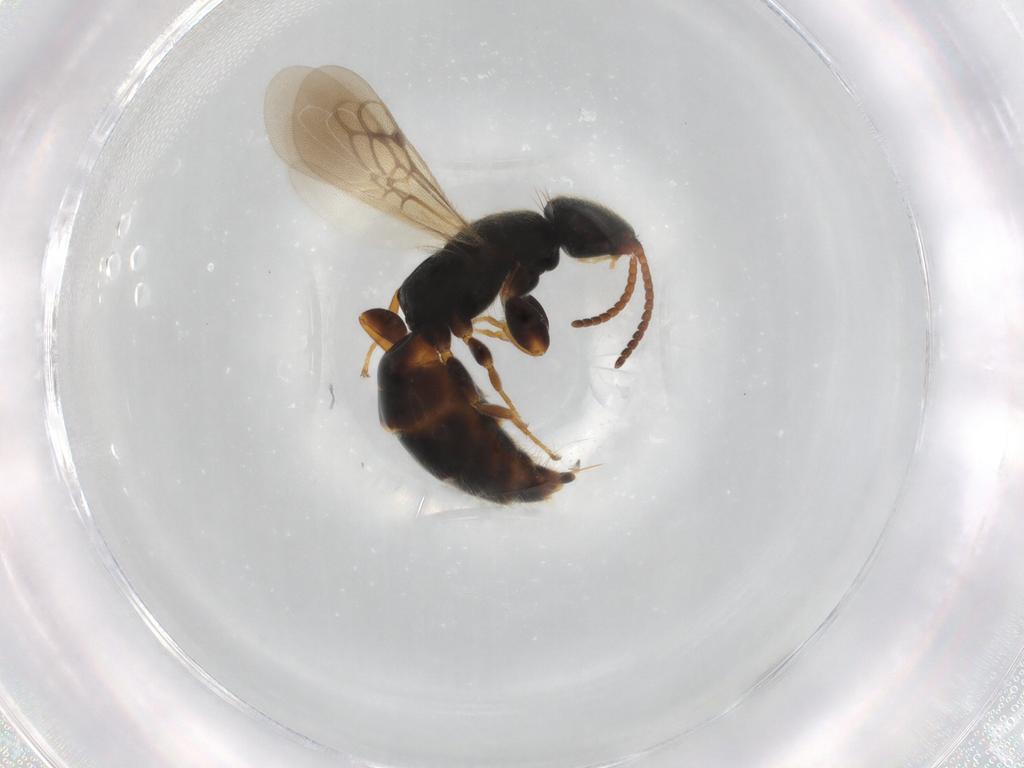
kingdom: Animalia
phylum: Arthropoda
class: Insecta
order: Hymenoptera
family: Bethylidae
